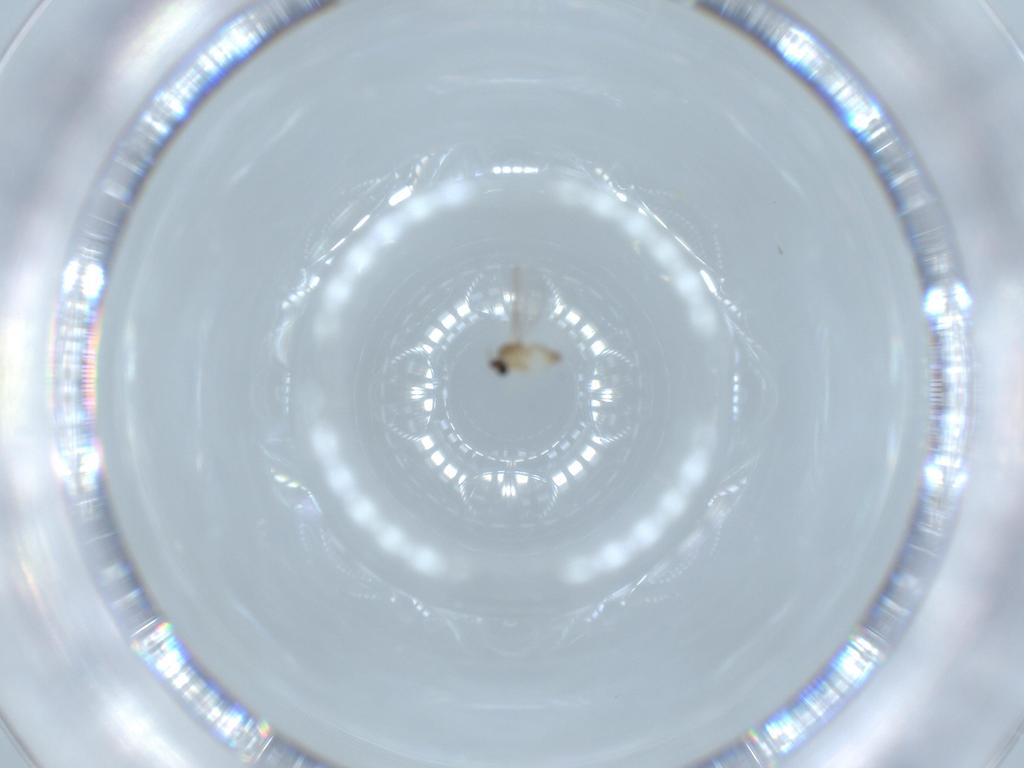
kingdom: Animalia
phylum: Arthropoda
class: Insecta
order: Diptera
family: Cecidomyiidae
